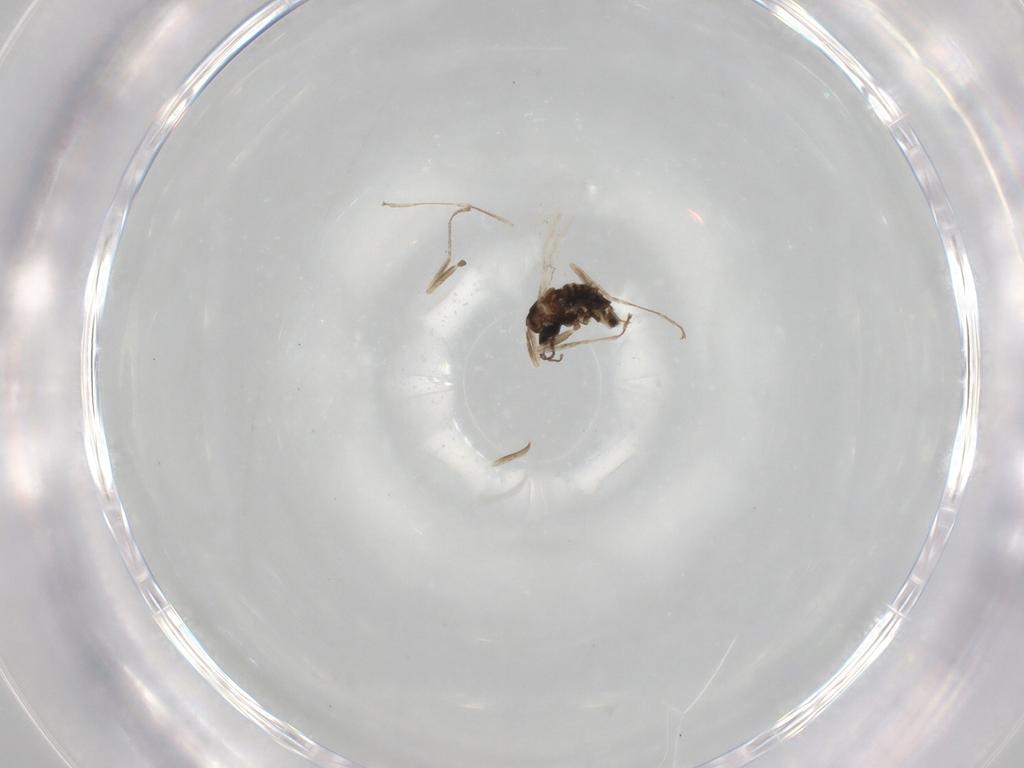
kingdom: Animalia
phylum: Arthropoda
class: Insecta
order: Diptera
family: Cecidomyiidae
